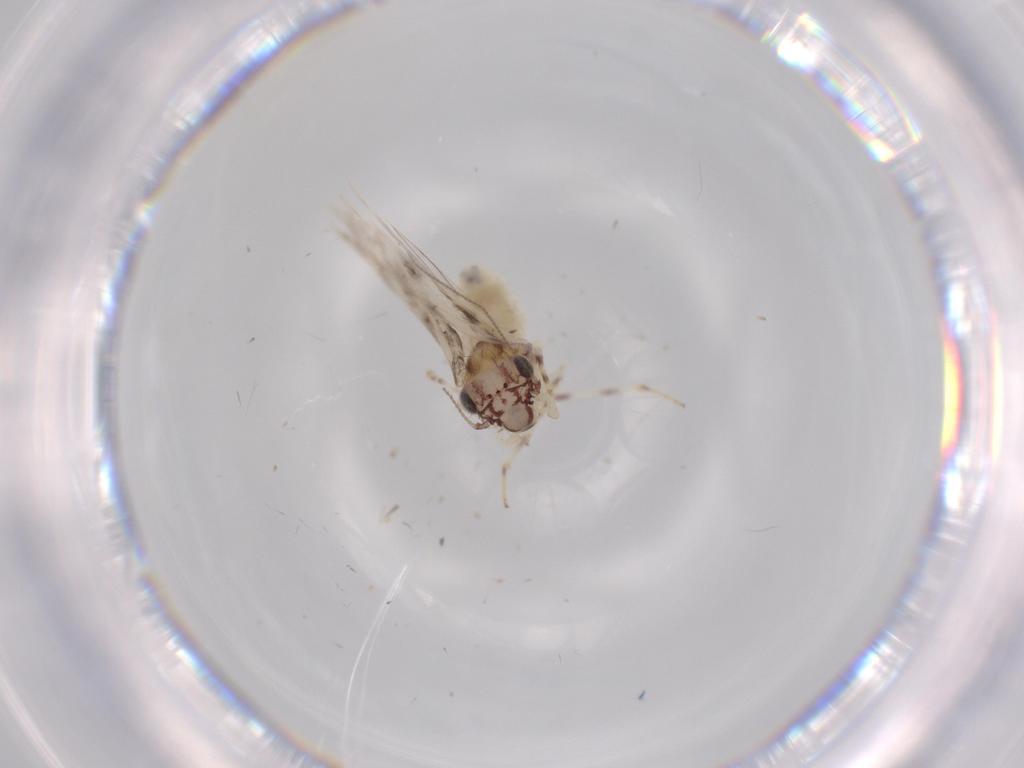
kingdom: Animalia
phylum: Arthropoda
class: Insecta
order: Psocodea
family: Lepidopsocidae
